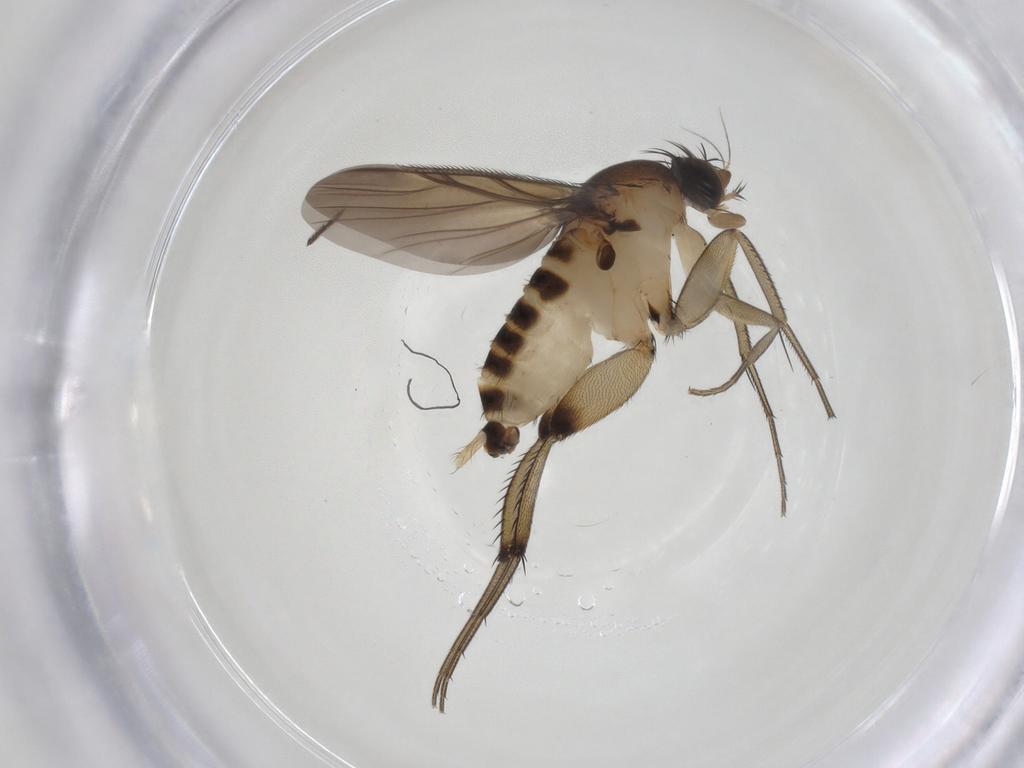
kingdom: Animalia
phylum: Arthropoda
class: Insecta
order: Diptera
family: Phoridae
